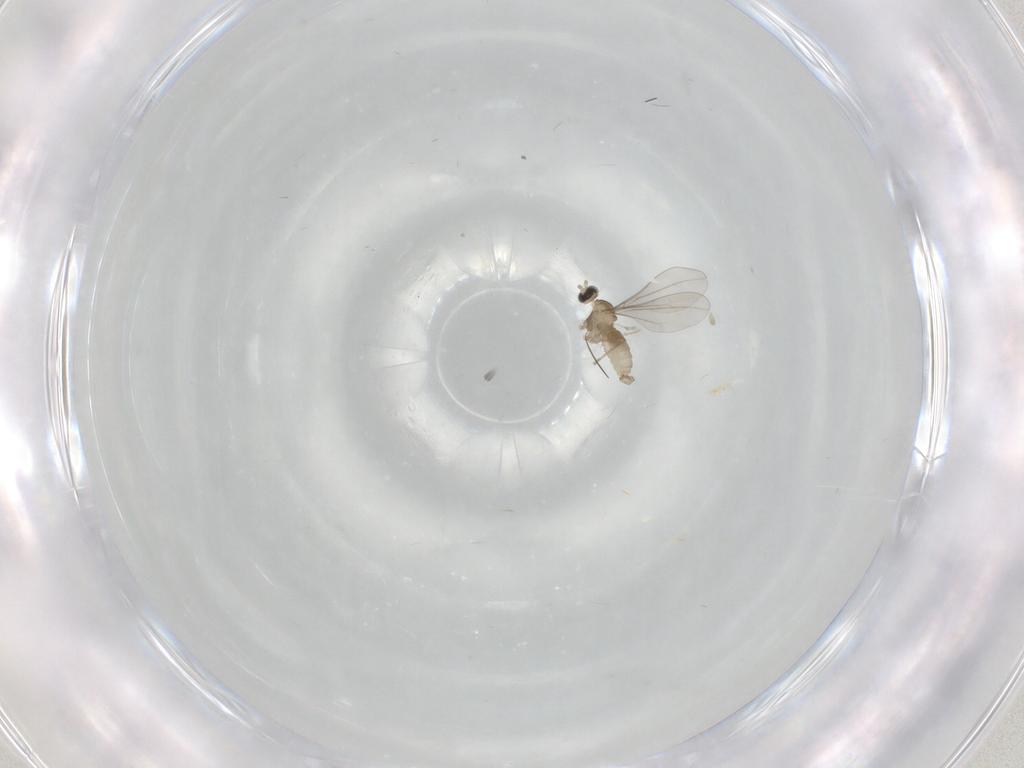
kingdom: Animalia
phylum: Arthropoda
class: Insecta
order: Diptera
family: Cecidomyiidae
